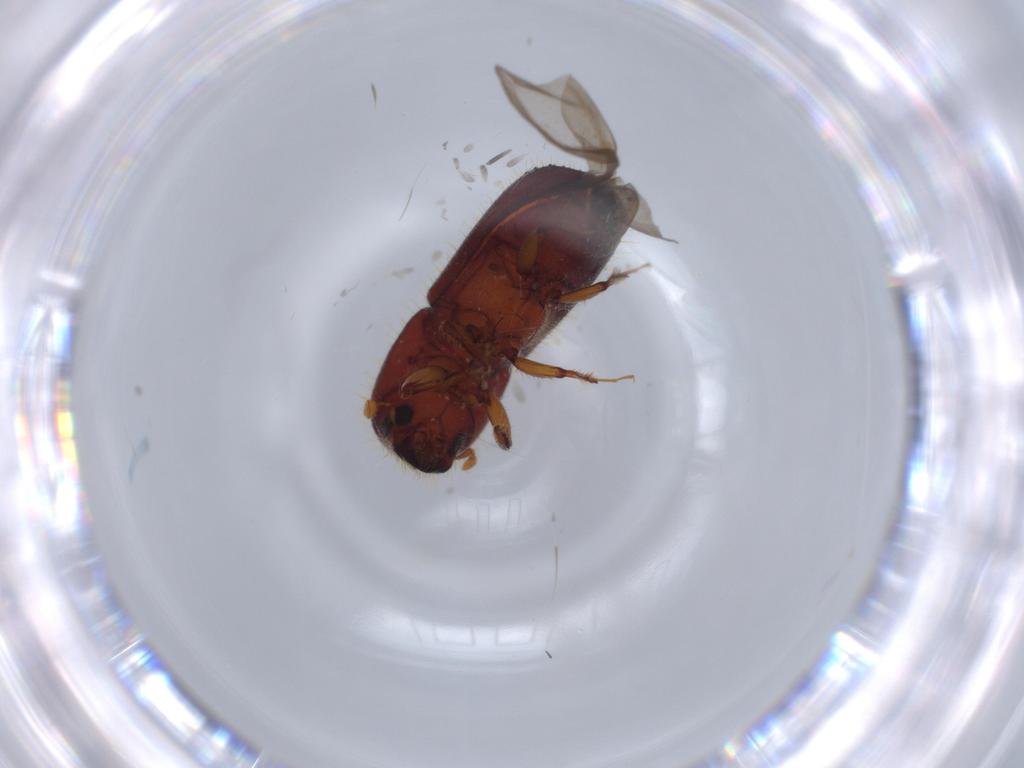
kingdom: Animalia
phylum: Arthropoda
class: Insecta
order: Coleoptera
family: Curculionidae
